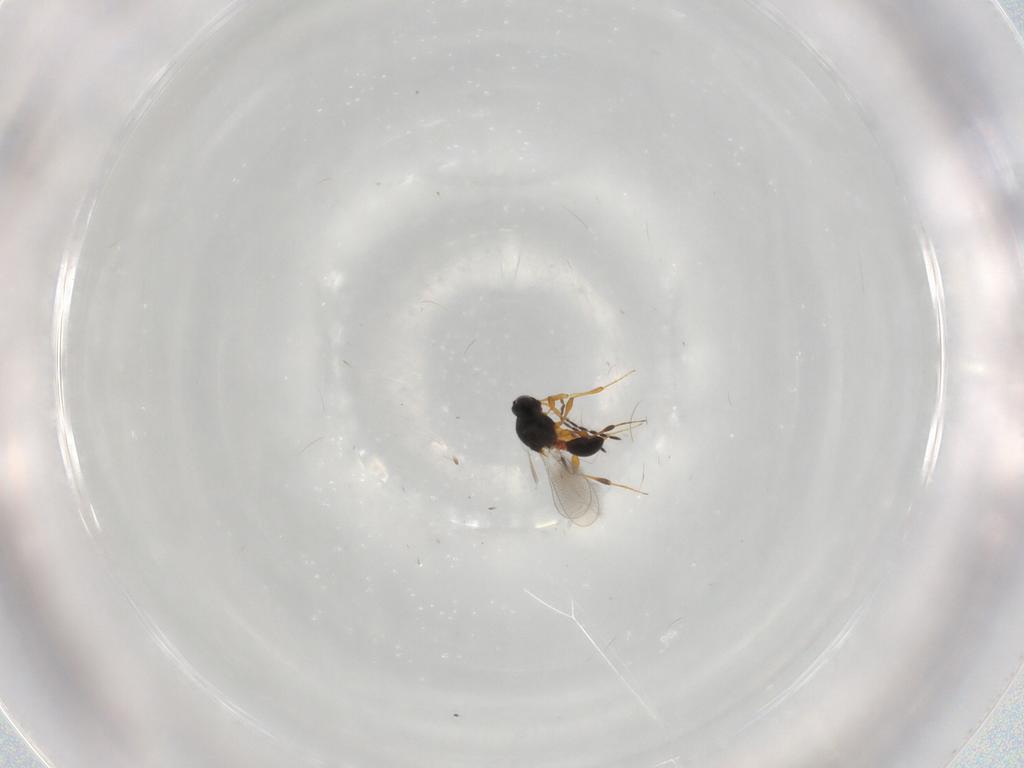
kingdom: Animalia
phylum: Arthropoda
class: Insecta
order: Hymenoptera
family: Platygastridae
